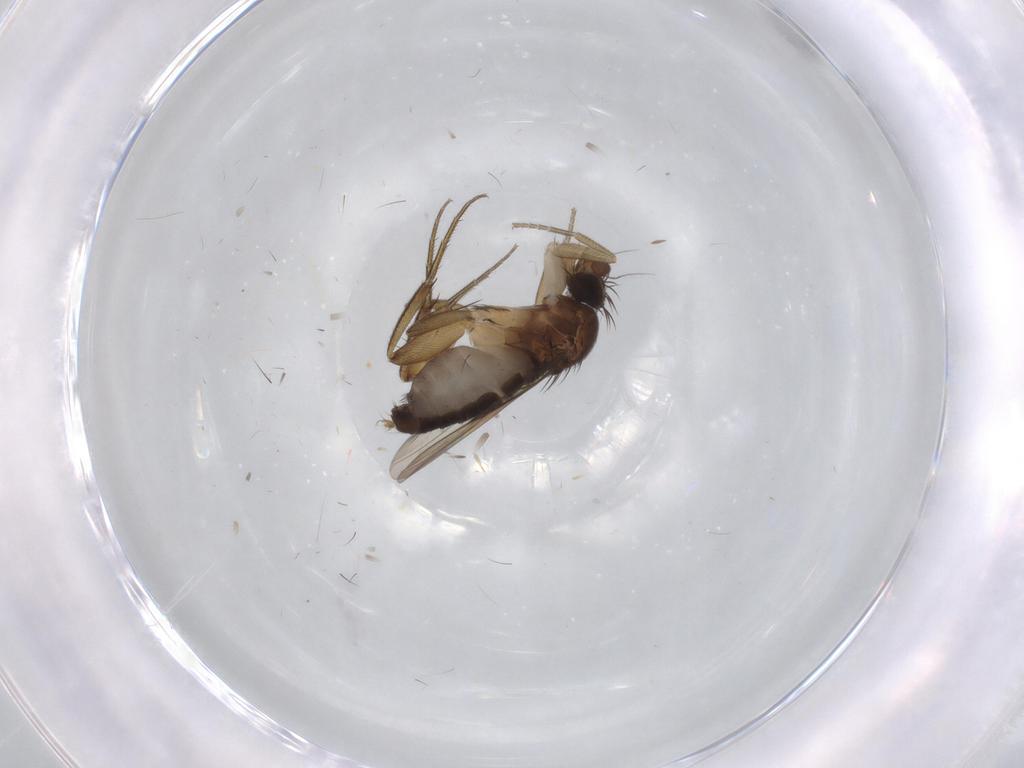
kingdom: Animalia
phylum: Arthropoda
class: Insecta
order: Diptera
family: Phoridae
